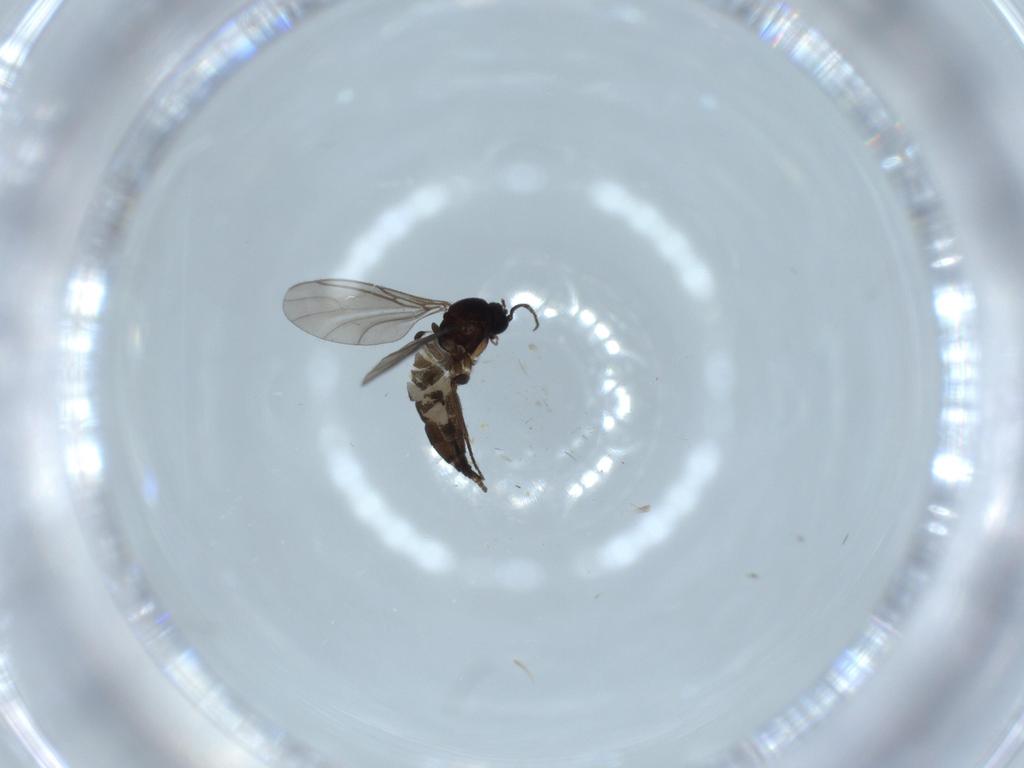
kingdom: Animalia
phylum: Arthropoda
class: Insecta
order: Diptera
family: Sciaridae
